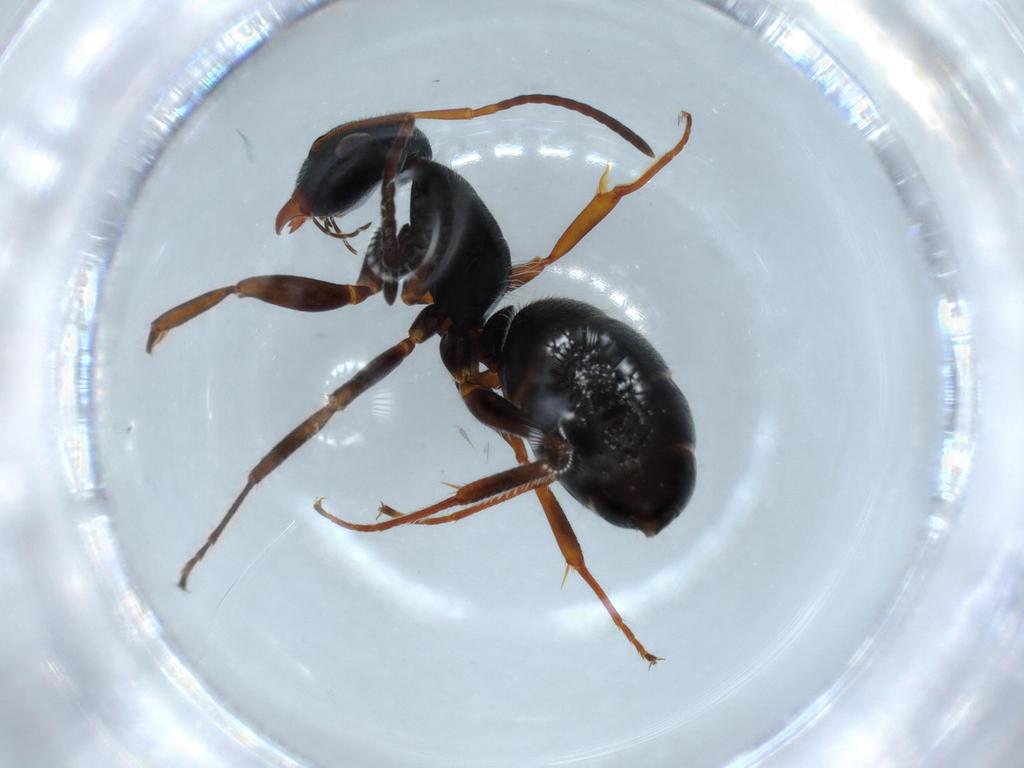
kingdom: Animalia
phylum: Arthropoda
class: Insecta
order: Hymenoptera
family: Formicidae
